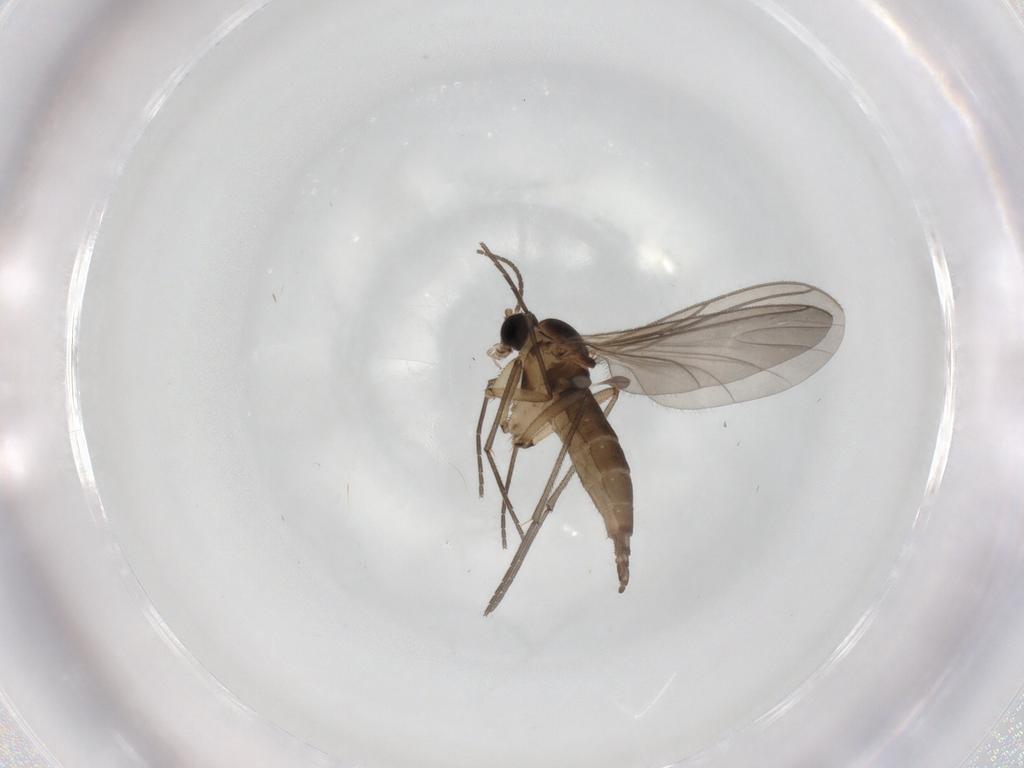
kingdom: Animalia
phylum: Arthropoda
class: Insecta
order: Diptera
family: Sciaridae
